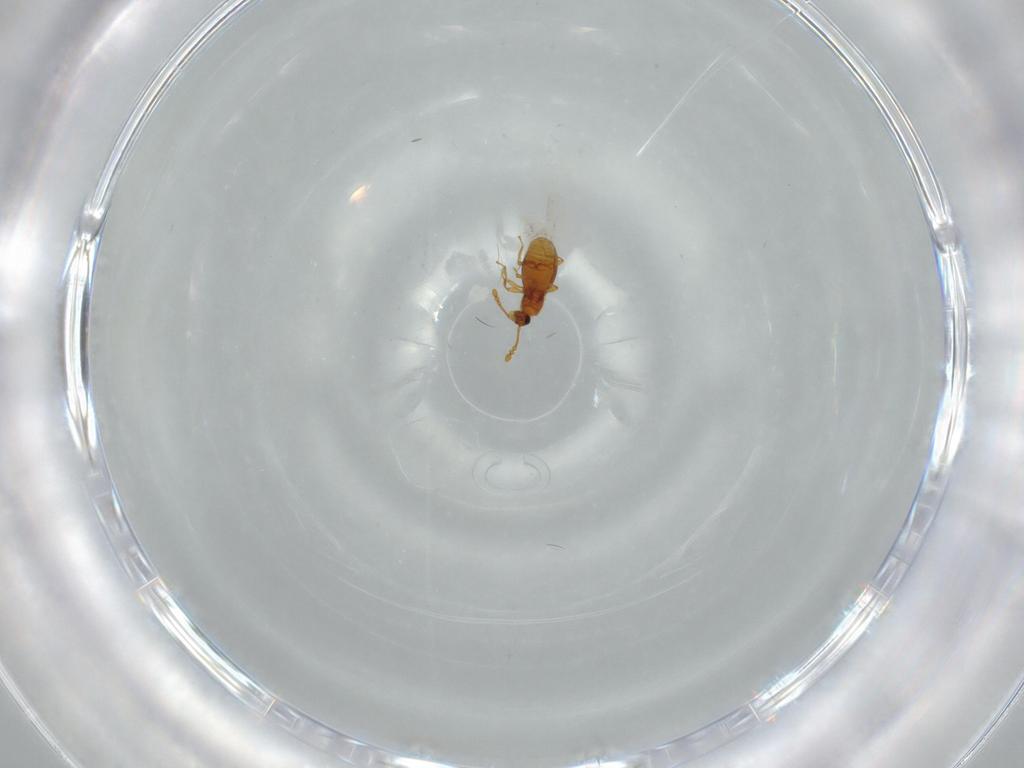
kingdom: Animalia
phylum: Arthropoda
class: Insecta
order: Coleoptera
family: Staphylinidae
